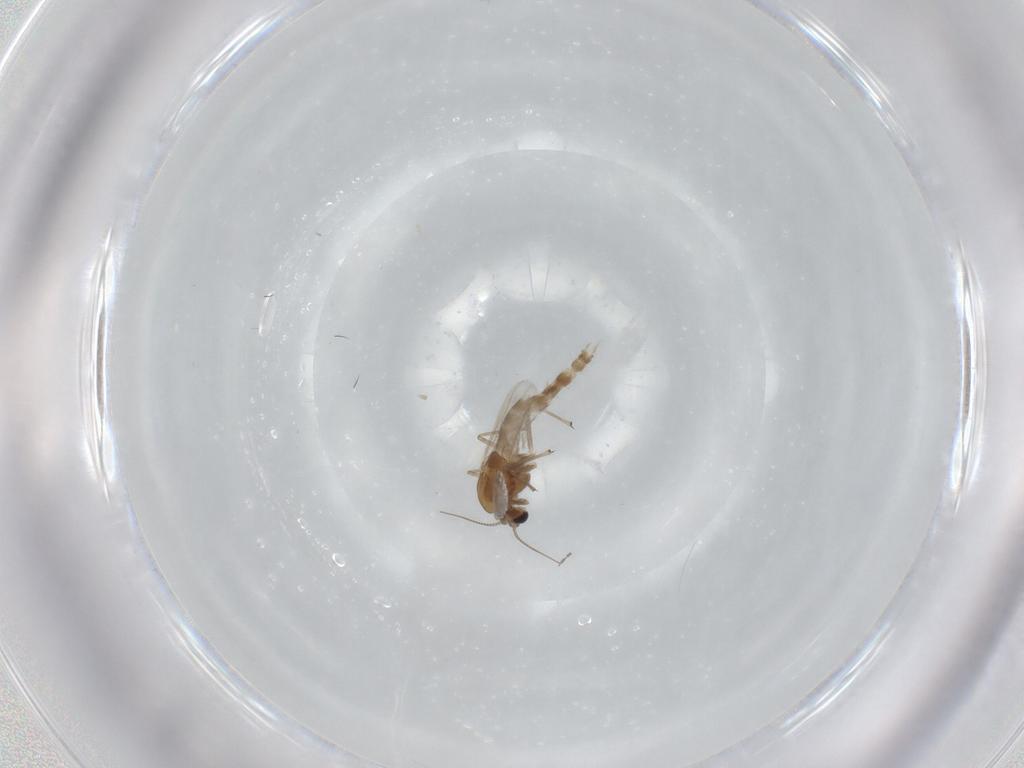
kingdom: Animalia
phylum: Arthropoda
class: Insecta
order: Diptera
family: Chironomidae
